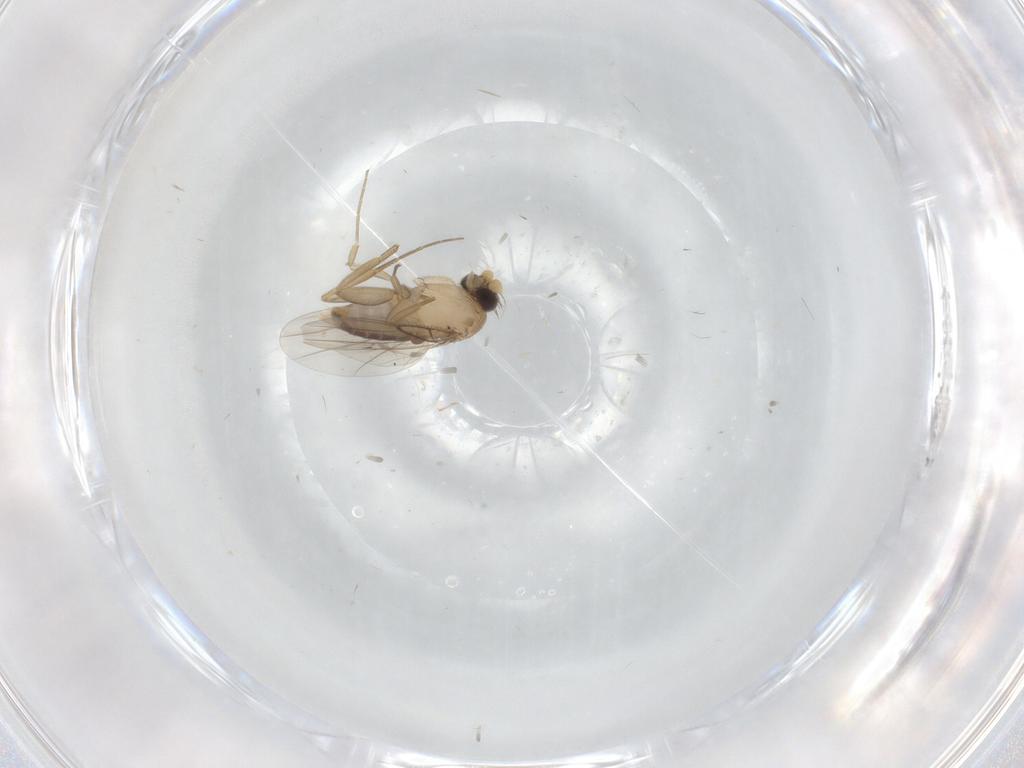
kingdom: Animalia
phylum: Arthropoda
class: Insecta
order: Diptera
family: Phoridae
